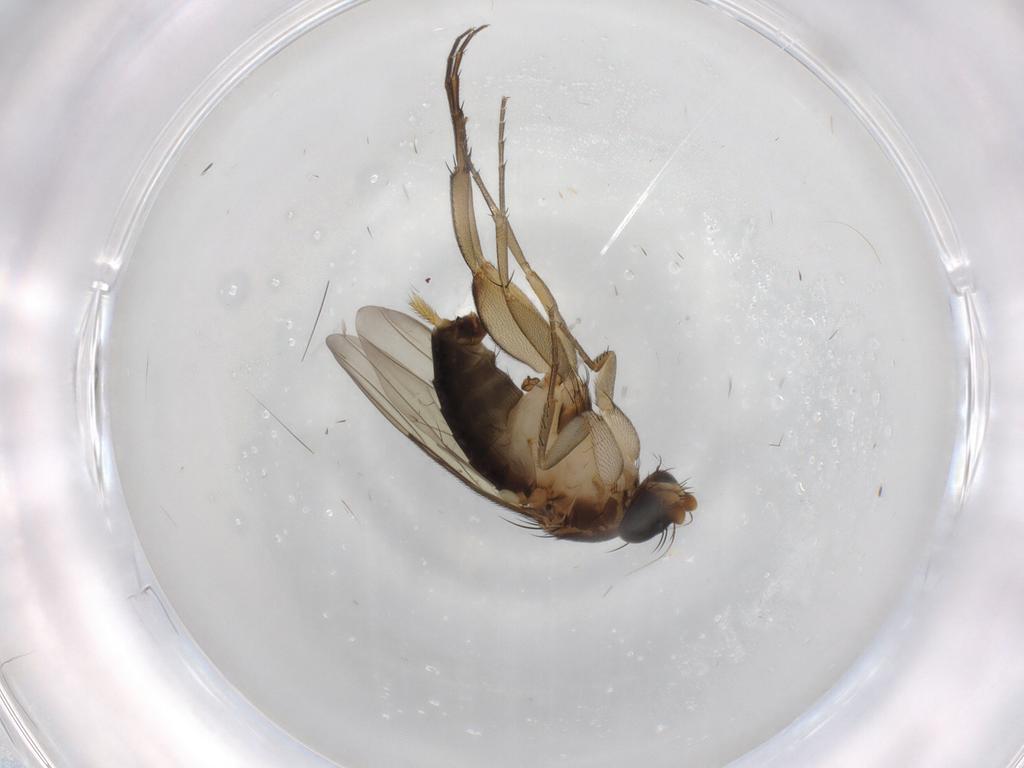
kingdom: Animalia
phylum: Arthropoda
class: Insecta
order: Diptera
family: Phoridae
